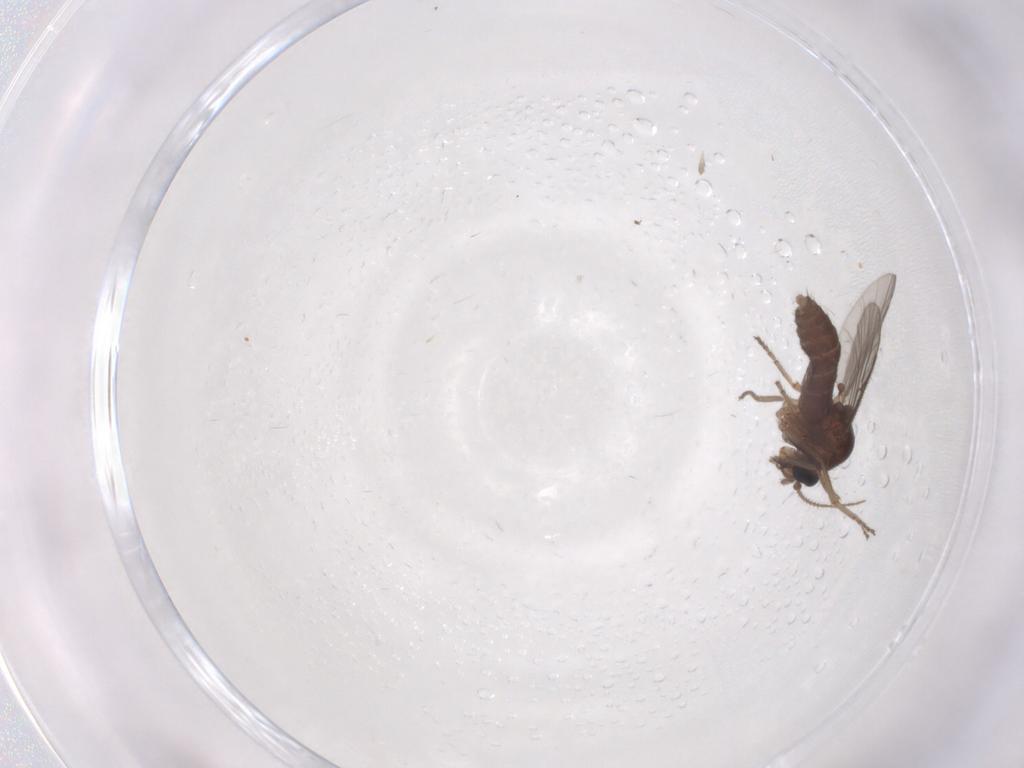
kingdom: Animalia
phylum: Arthropoda
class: Insecta
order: Diptera
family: Ceratopogonidae
